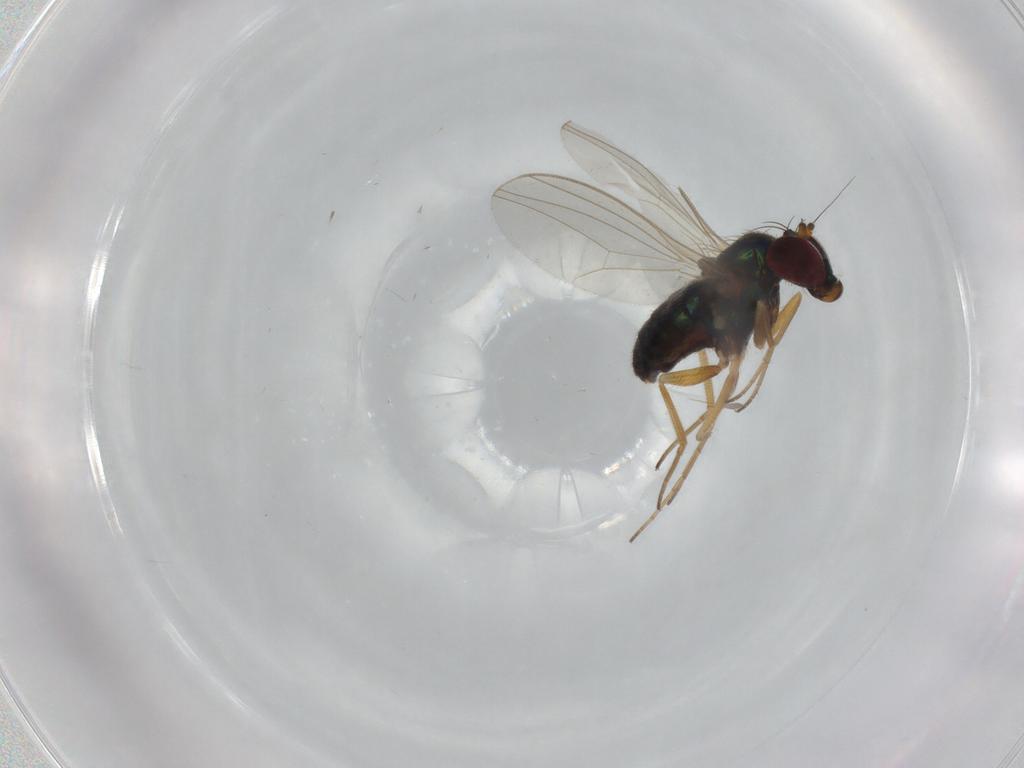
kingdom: Animalia
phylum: Arthropoda
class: Insecta
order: Diptera
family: Dolichopodidae
